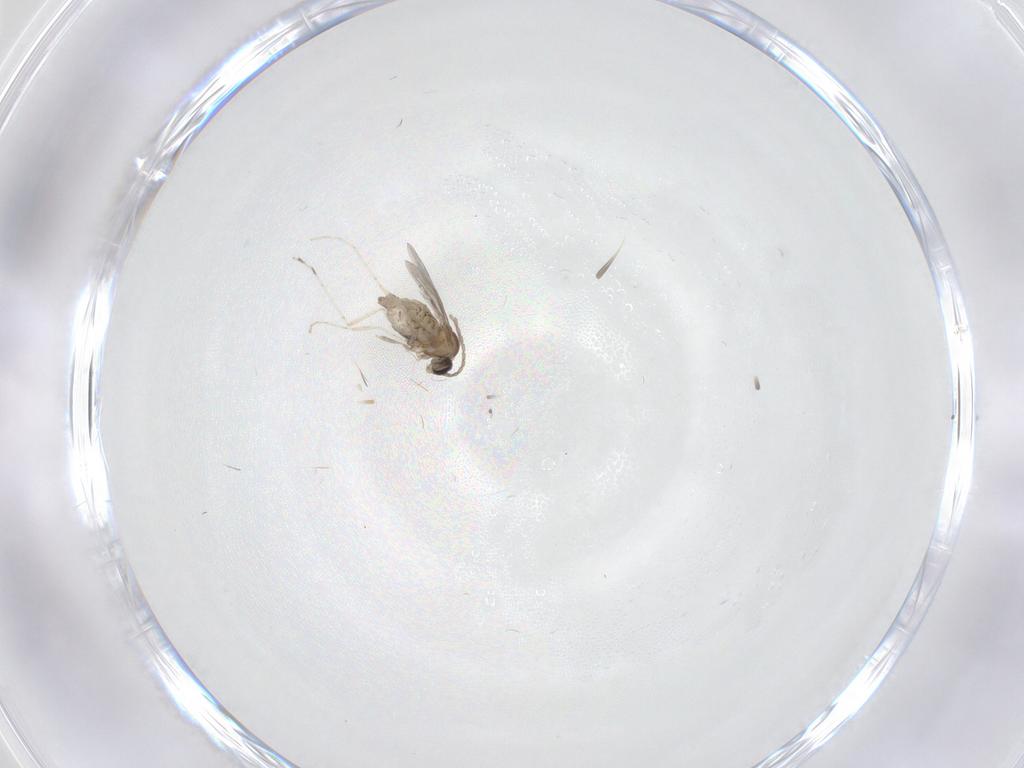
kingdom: Animalia
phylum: Arthropoda
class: Insecta
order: Diptera
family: Cecidomyiidae
